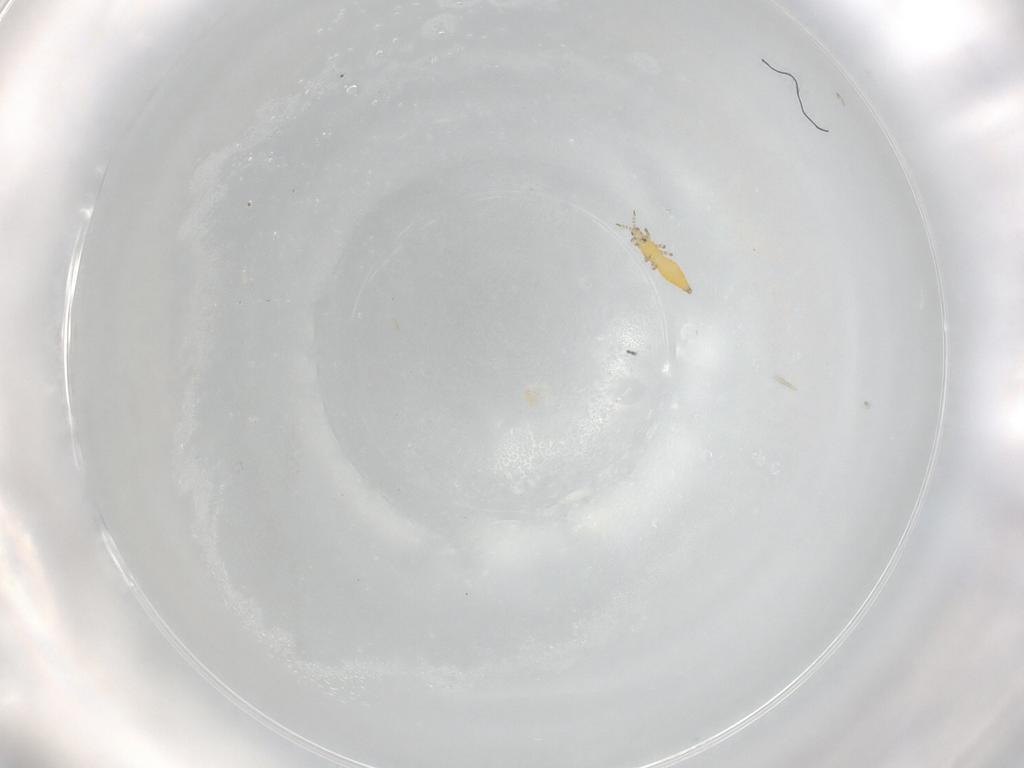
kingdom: Animalia
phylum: Arthropoda
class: Insecta
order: Thysanoptera
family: Thripidae
